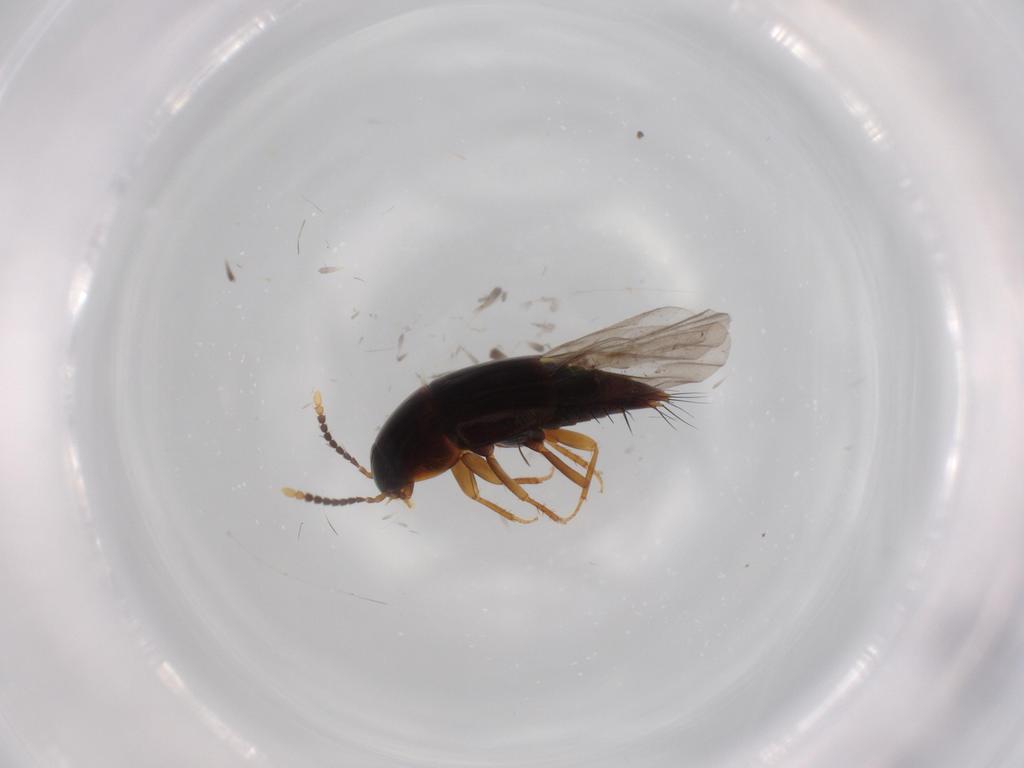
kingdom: Animalia
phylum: Arthropoda
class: Insecta
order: Coleoptera
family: Staphylinidae
